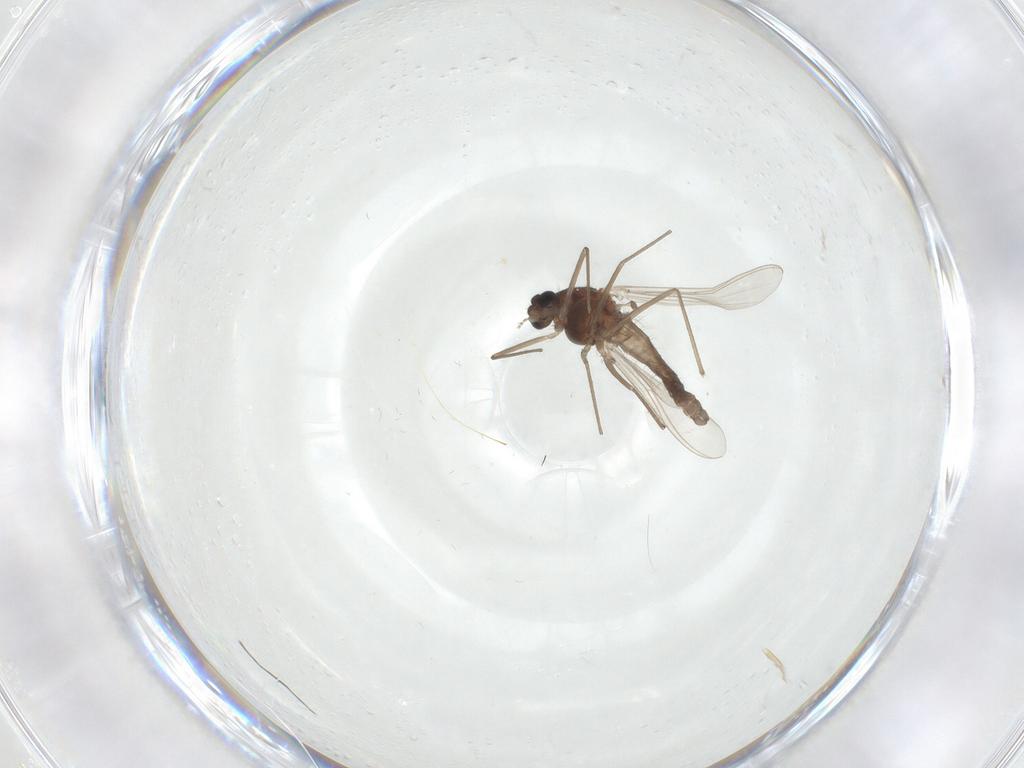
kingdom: Animalia
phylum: Arthropoda
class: Insecta
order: Diptera
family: Chironomidae
